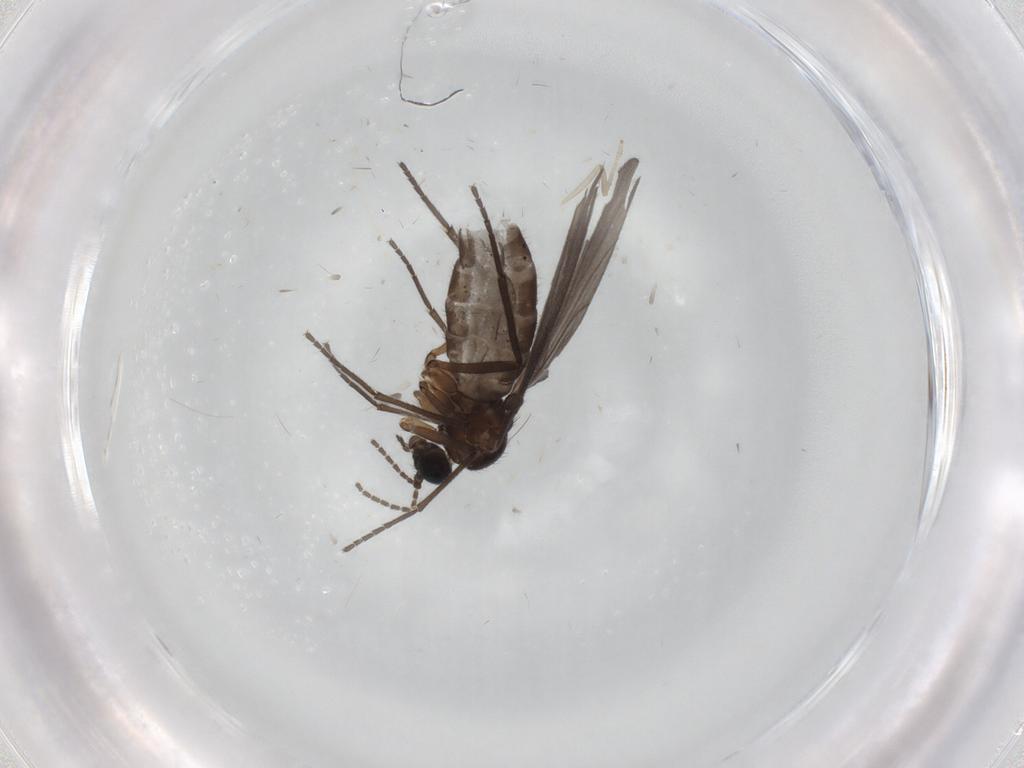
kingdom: Animalia
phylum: Arthropoda
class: Insecta
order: Diptera
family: Sciaridae
